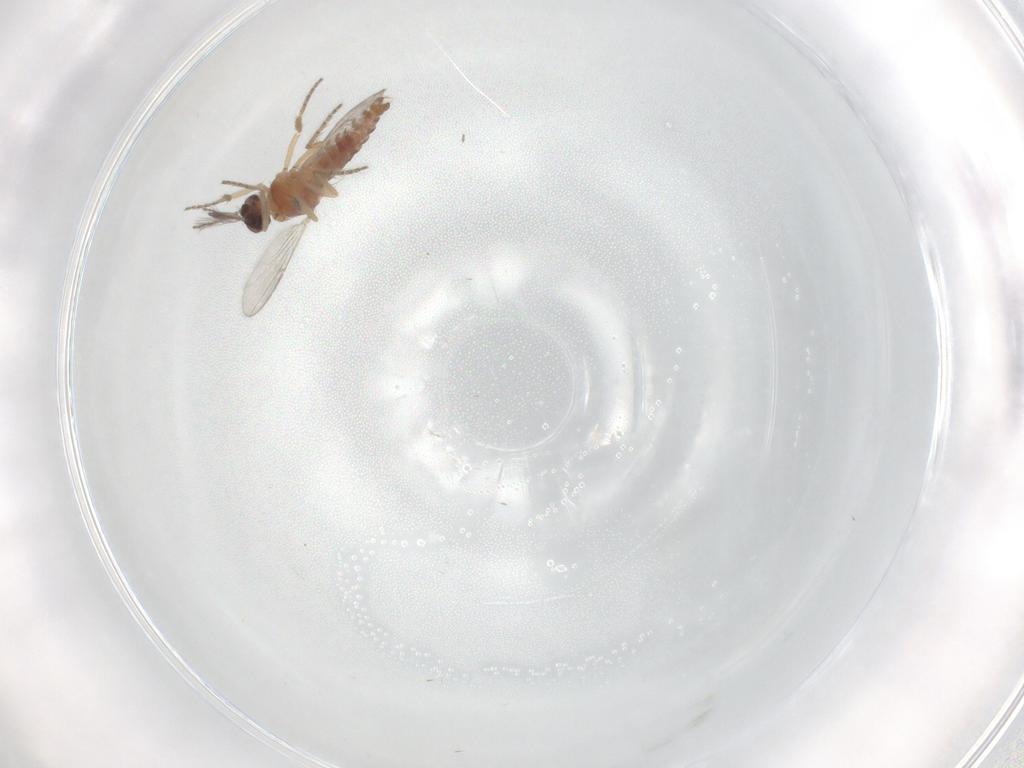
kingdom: Animalia
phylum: Arthropoda
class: Insecta
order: Diptera
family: Ceratopogonidae
